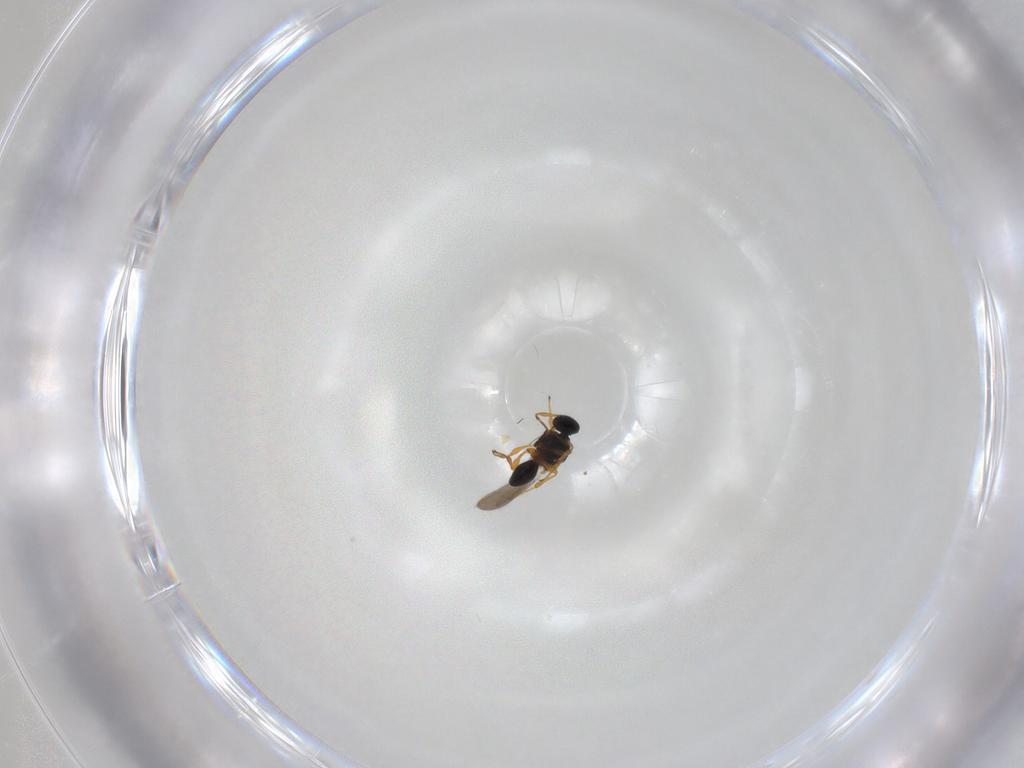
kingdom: Animalia
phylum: Arthropoda
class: Insecta
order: Hymenoptera
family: Platygastridae
